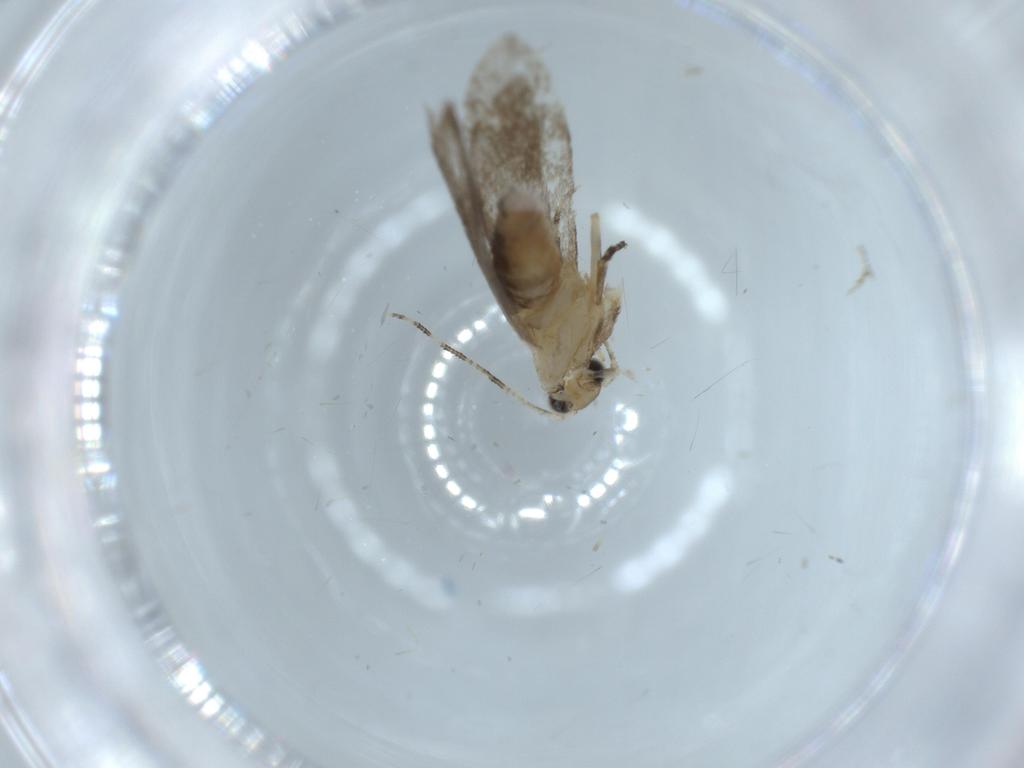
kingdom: Animalia
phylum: Arthropoda
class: Insecta
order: Lepidoptera
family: Tineidae
